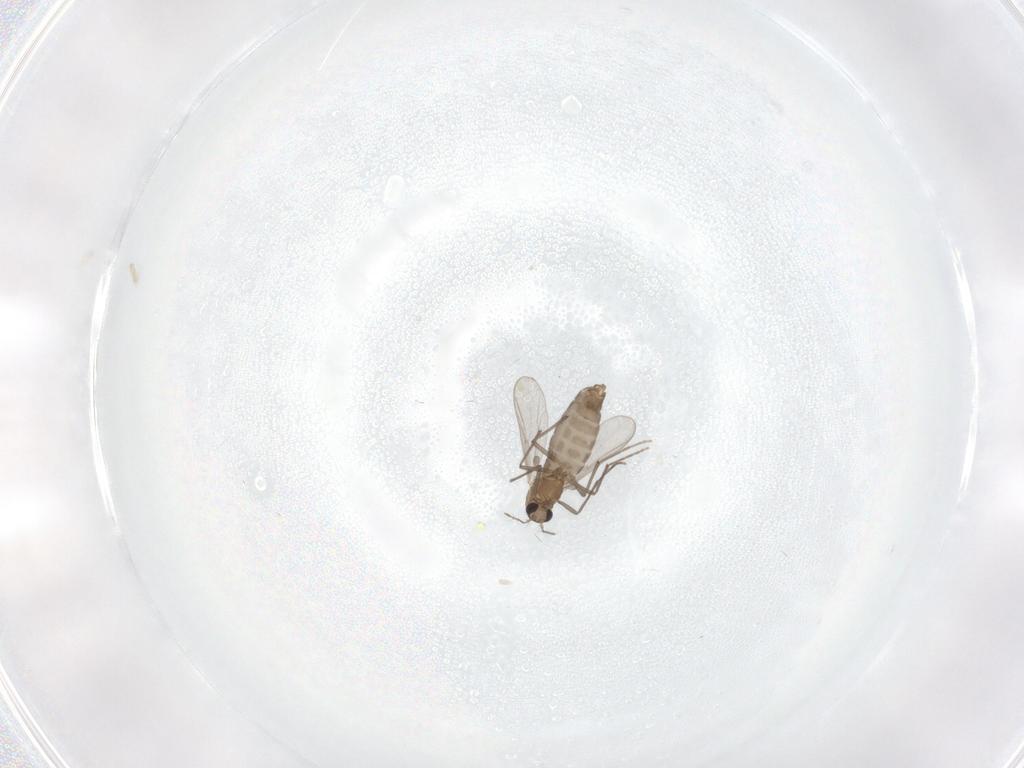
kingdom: Animalia
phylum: Arthropoda
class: Insecta
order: Diptera
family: Chironomidae
